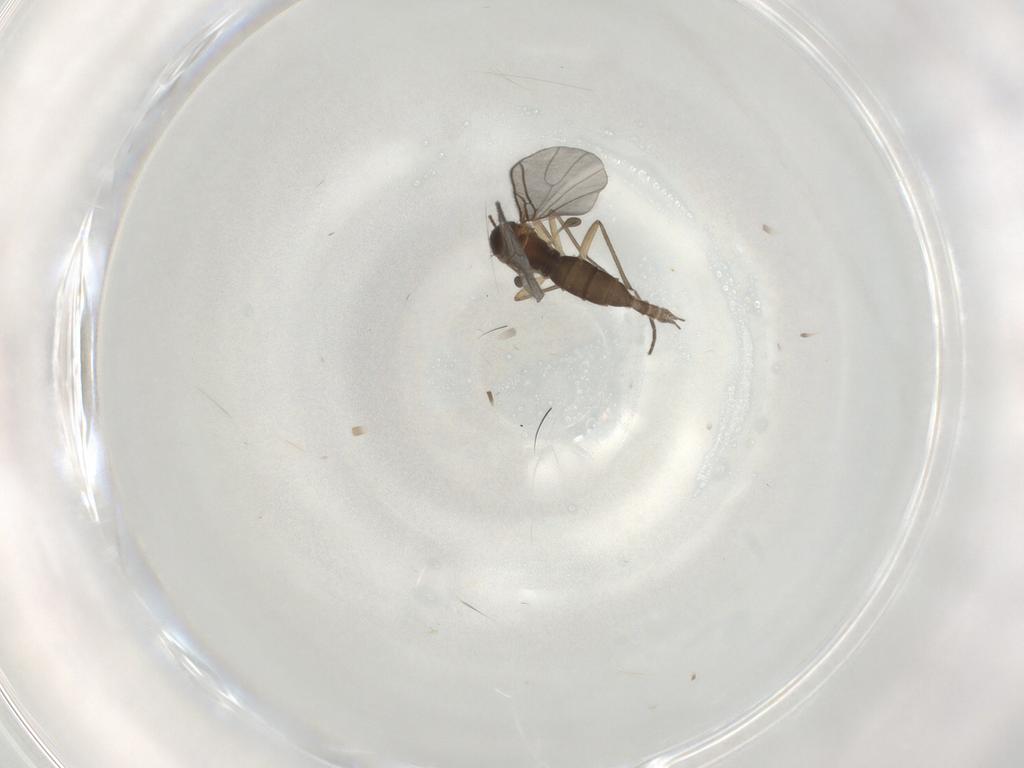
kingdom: Animalia
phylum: Arthropoda
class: Insecta
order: Diptera
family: Sciaridae
